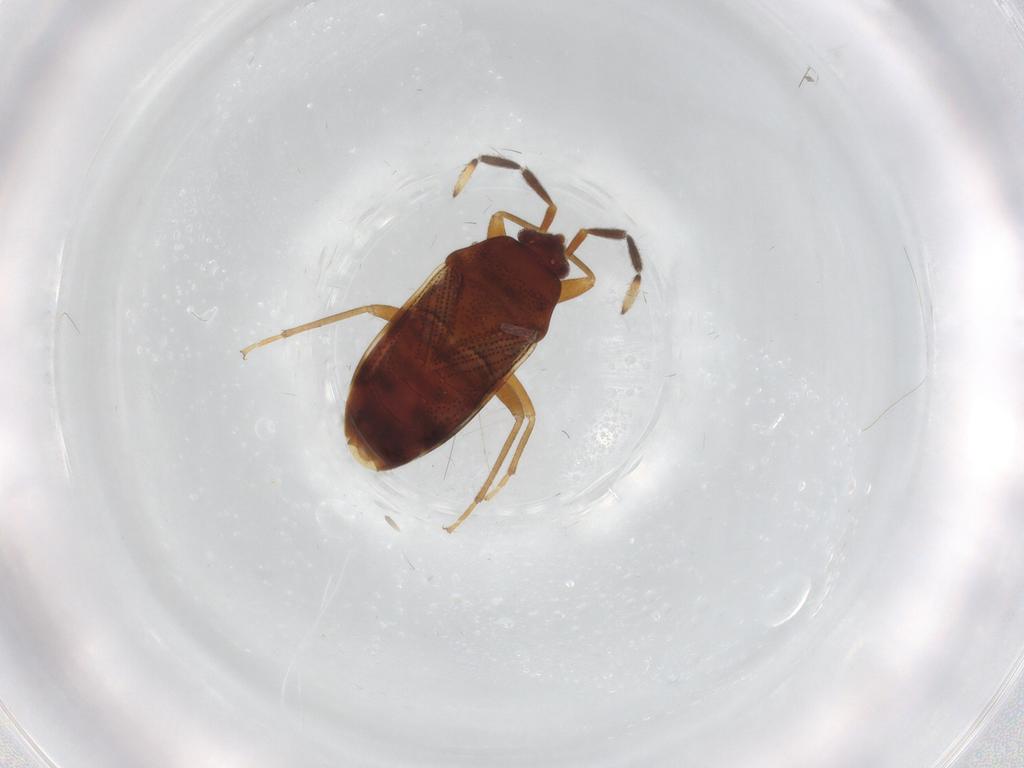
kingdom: Animalia
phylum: Arthropoda
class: Insecta
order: Hemiptera
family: Rhyparochromidae
